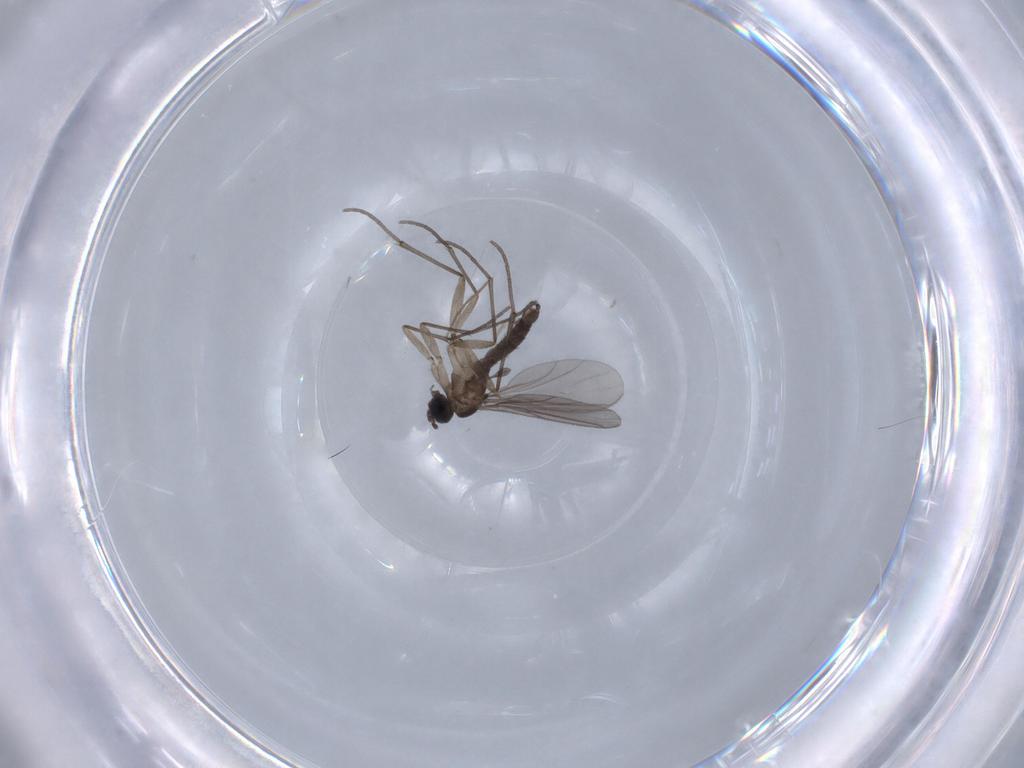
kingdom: Animalia
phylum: Arthropoda
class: Insecta
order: Diptera
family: Sciaridae
